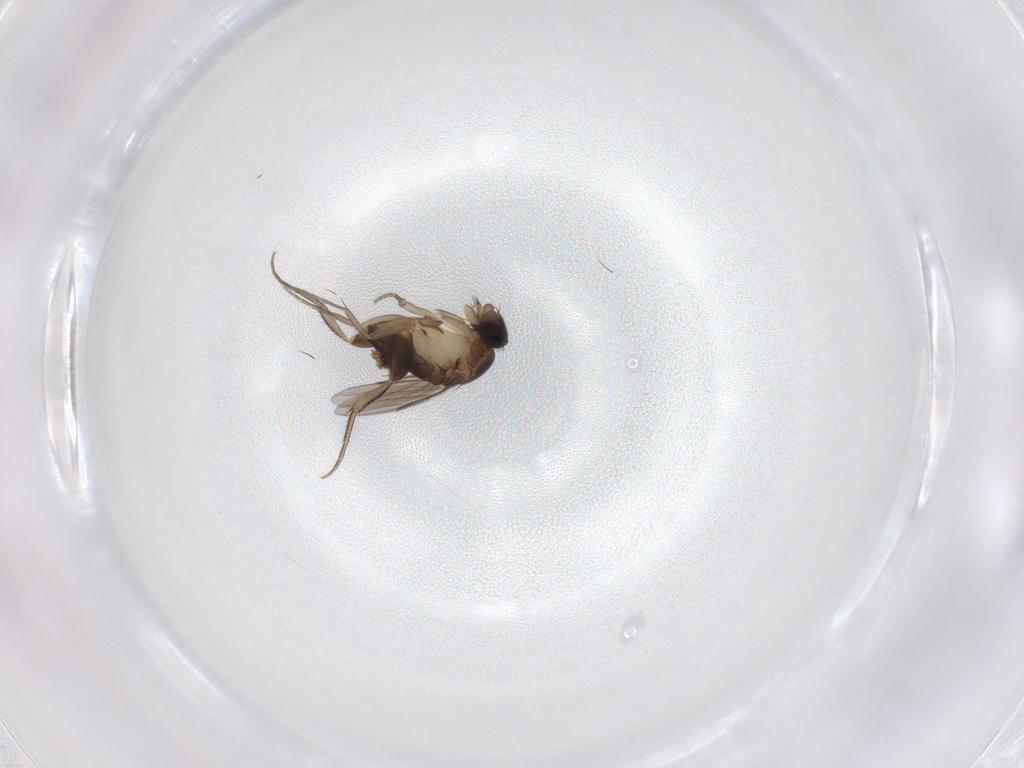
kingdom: Animalia
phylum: Arthropoda
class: Insecta
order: Diptera
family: Phoridae
